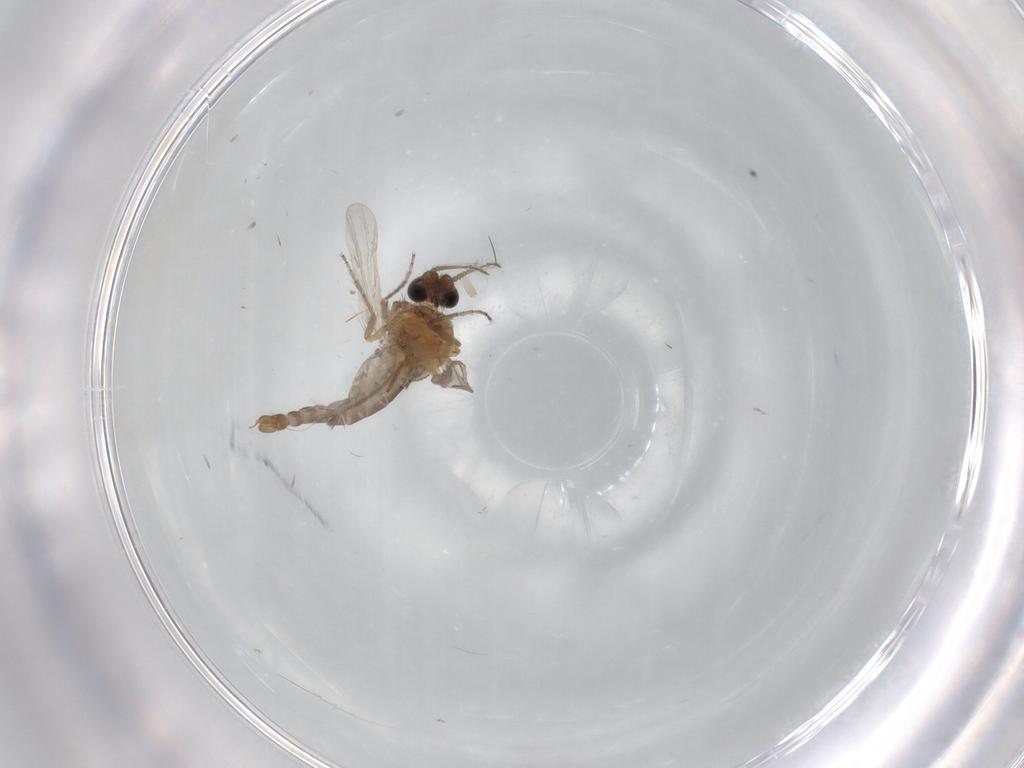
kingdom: Animalia
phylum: Arthropoda
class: Insecta
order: Diptera
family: Ceratopogonidae
